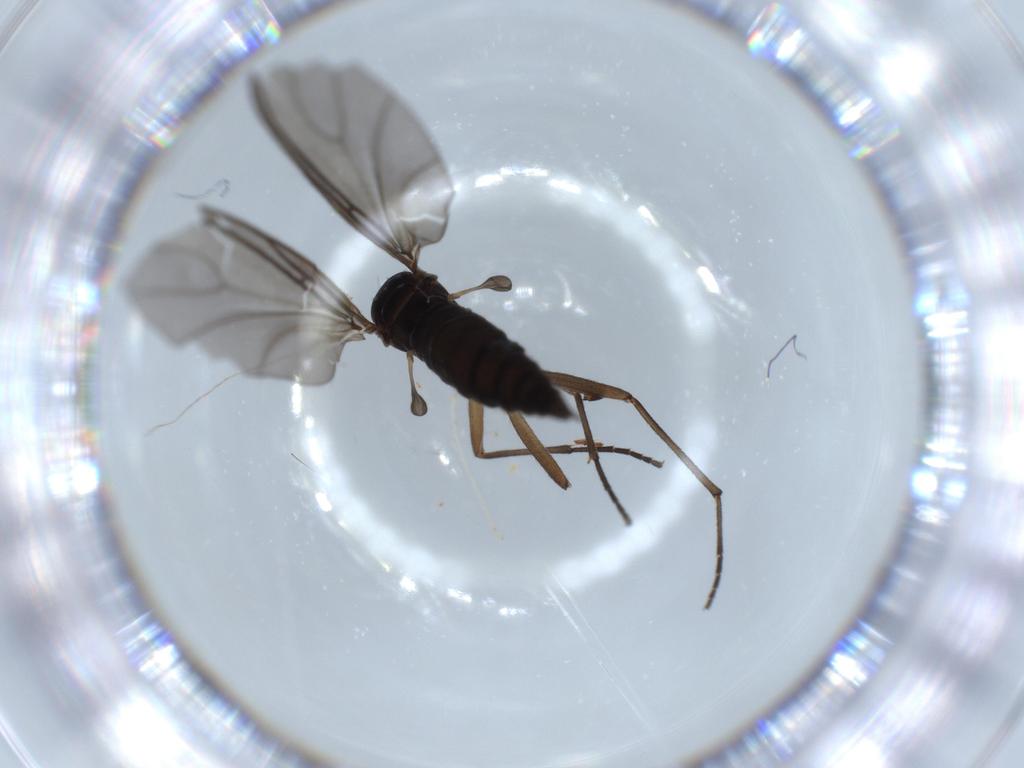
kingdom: Animalia
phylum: Arthropoda
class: Insecta
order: Diptera
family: Sciaridae
